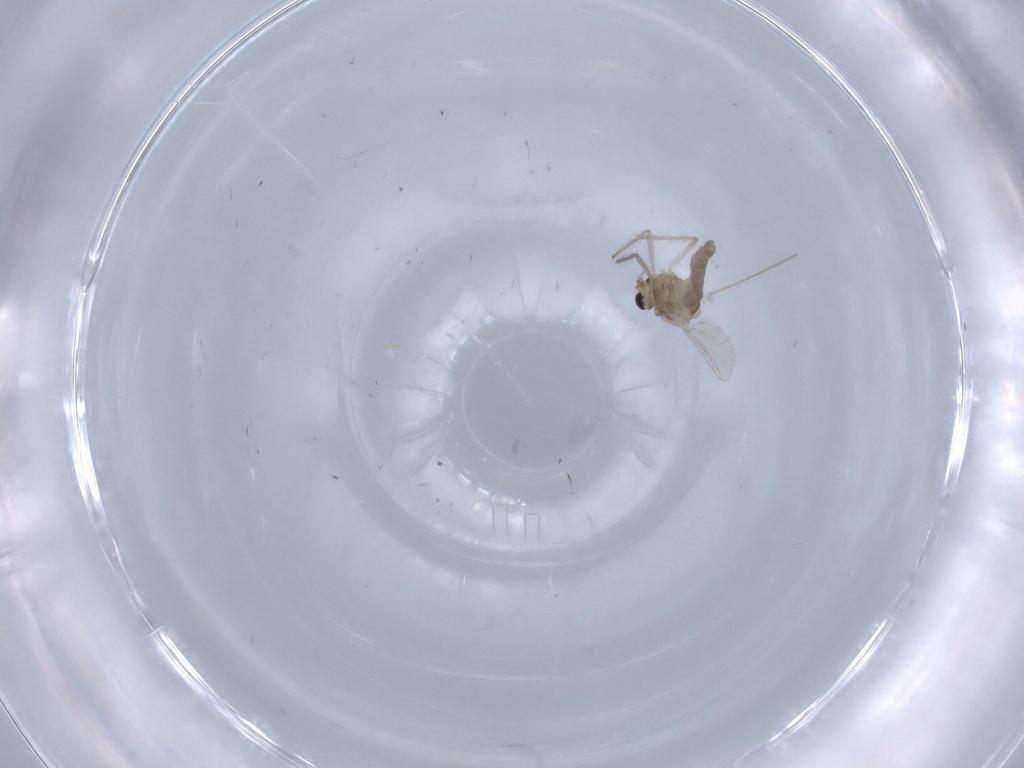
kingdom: Animalia
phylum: Arthropoda
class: Insecta
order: Diptera
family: Chironomidae
